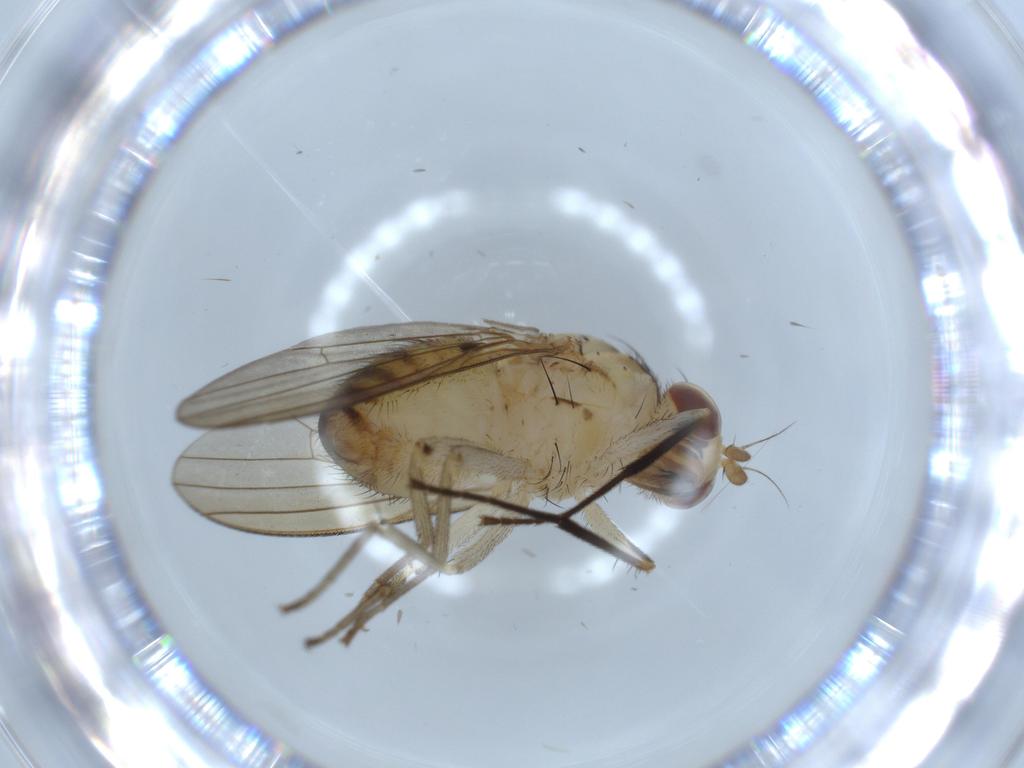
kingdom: Animalia
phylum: Arthropoda
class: Insecta
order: Diptera
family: Lauxaniidae
